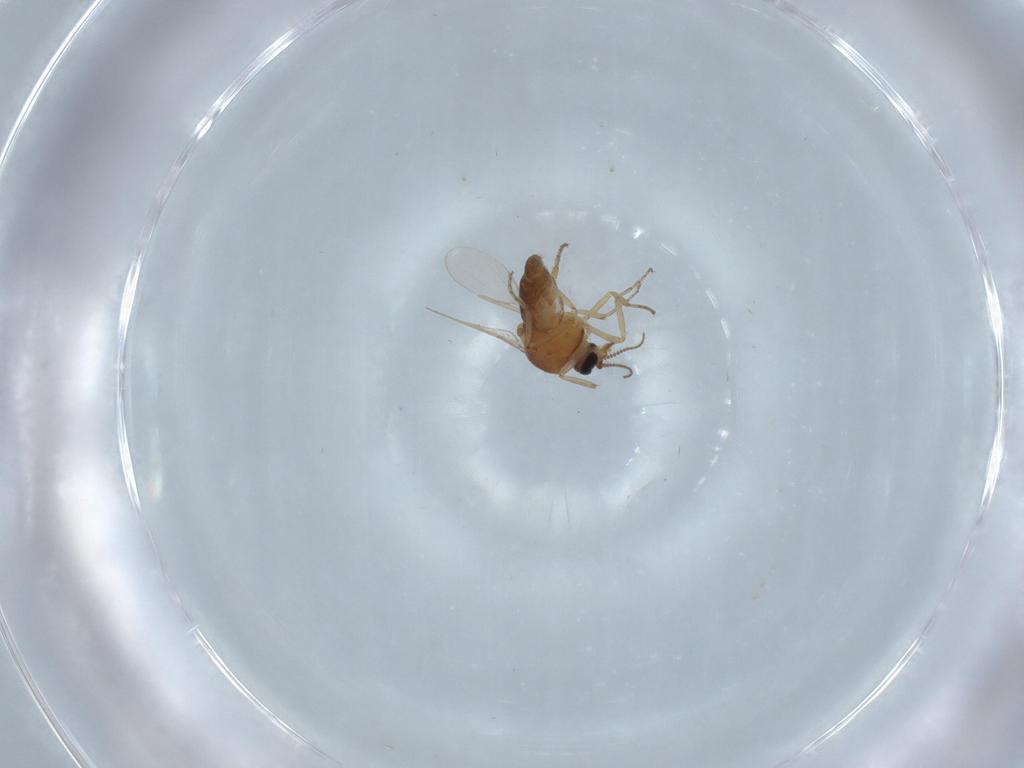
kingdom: Animalia
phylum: Arthropoda
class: Insecta
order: Diptera
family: Ceratopogonidae
